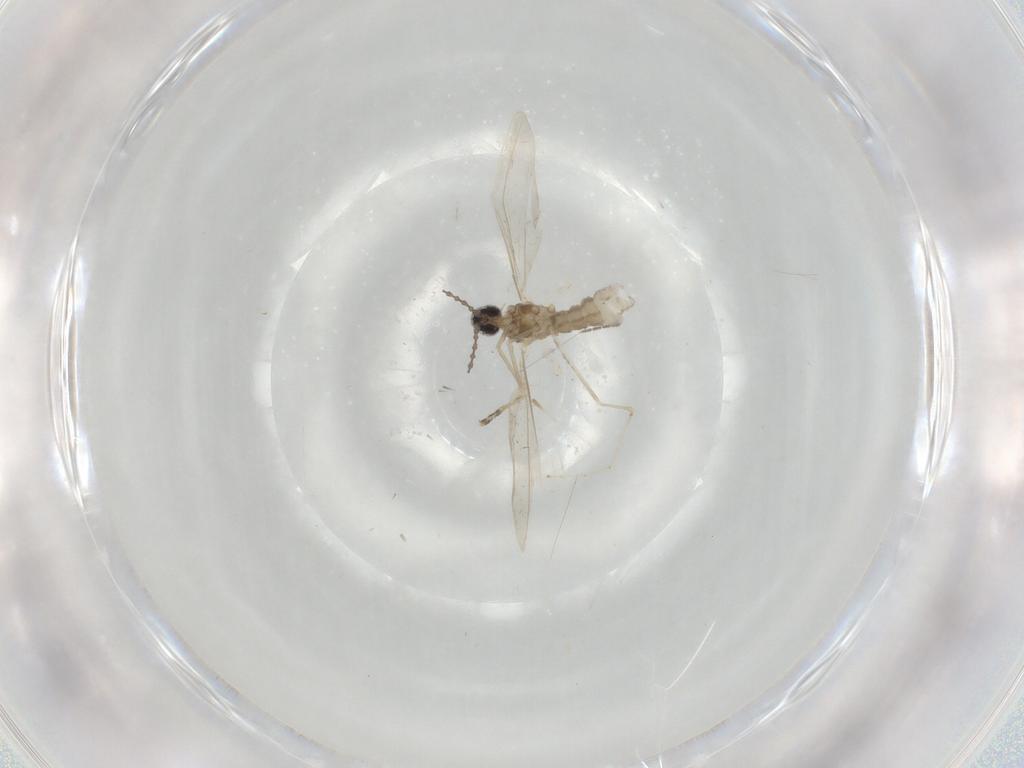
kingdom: Animalia
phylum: Arthropoda
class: Insecta
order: Diptera
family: Cecidomyiidae
